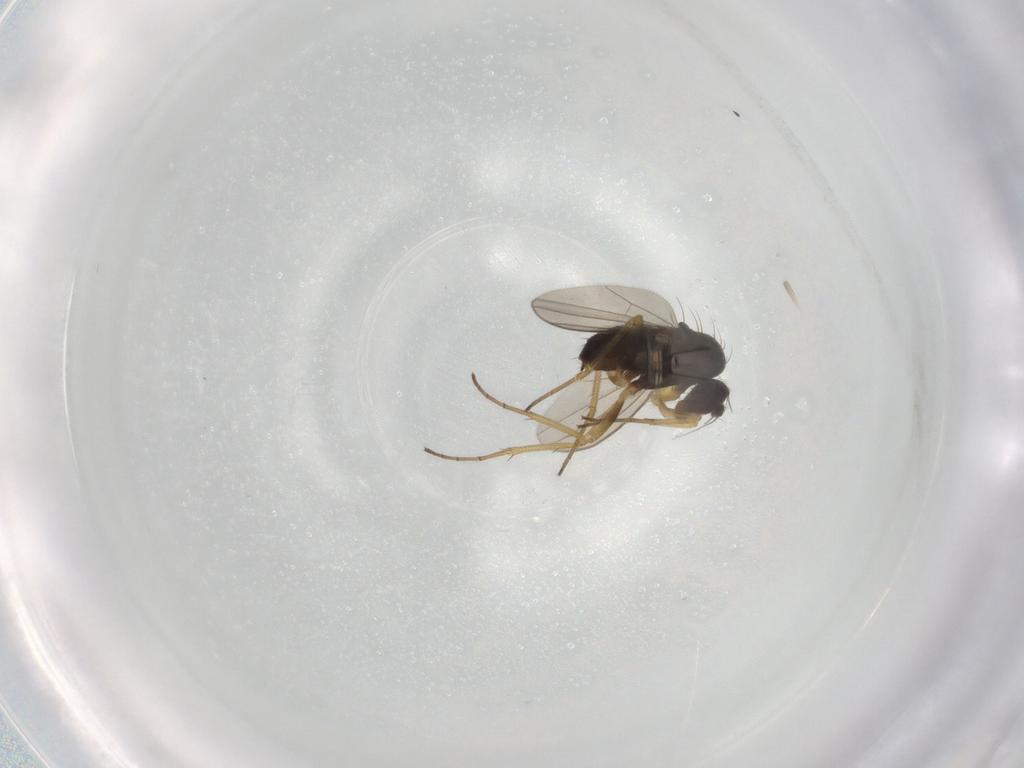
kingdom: Animalia
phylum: Arthropoda
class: Insecta
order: Diptera
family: Dolichopodidae
